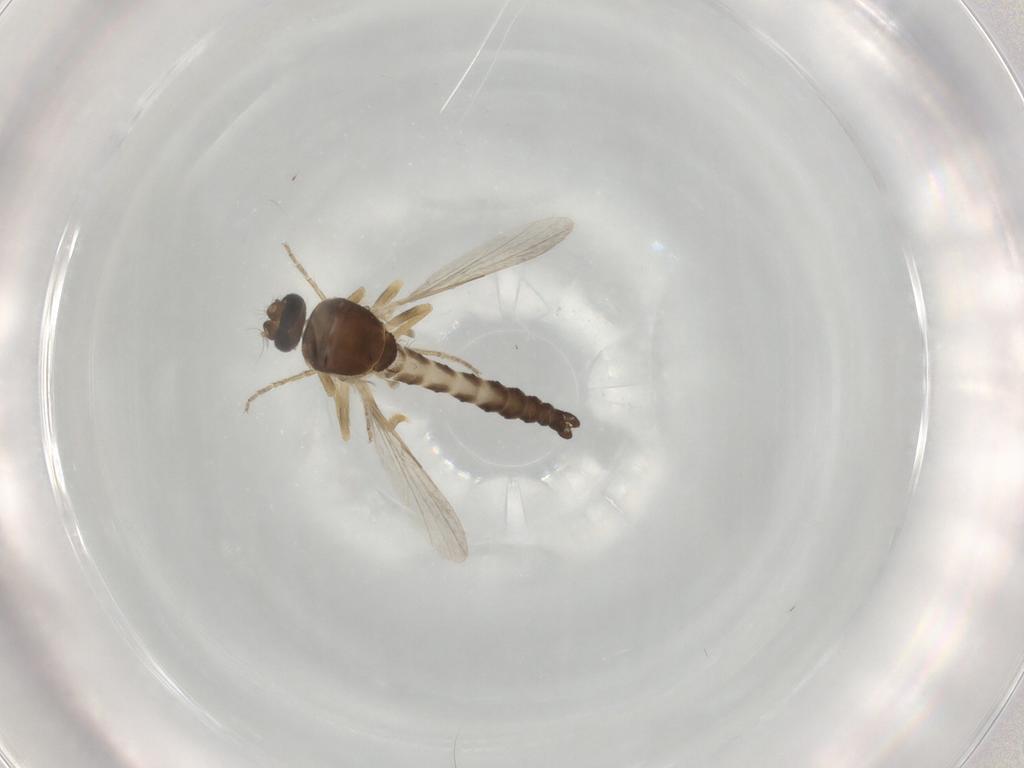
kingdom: Animalia
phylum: Arthropoda
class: Insecta
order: Diptera
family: Ceratopogonidae
